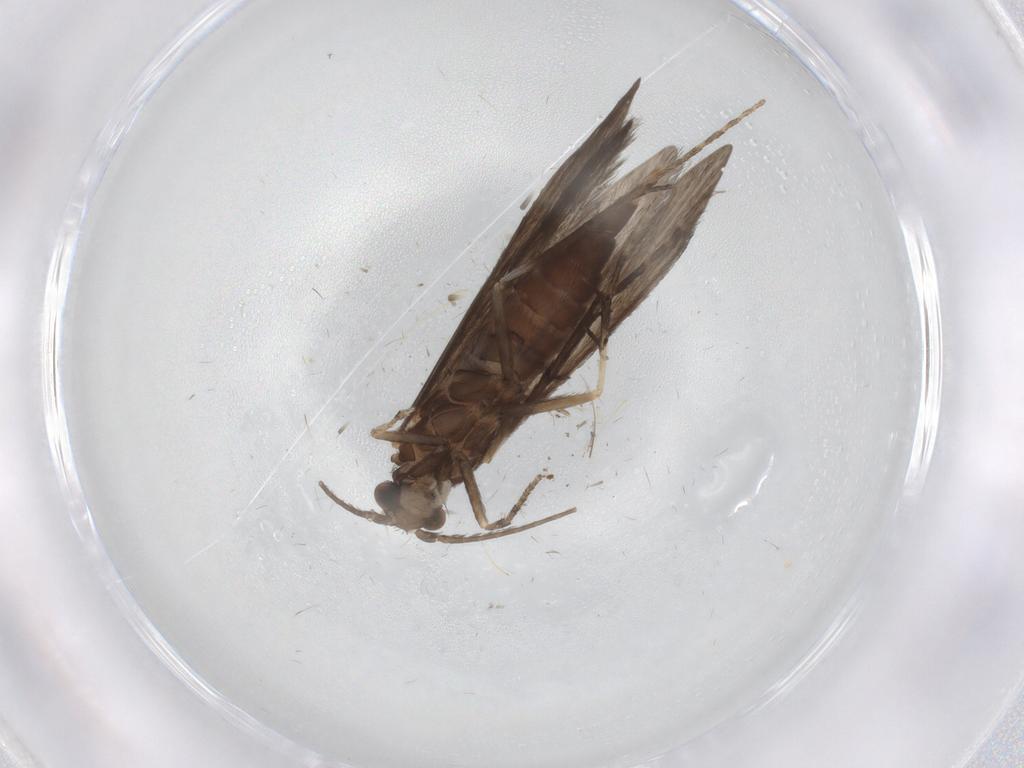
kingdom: Animalia
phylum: Arthropoda
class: Insecta
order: Trichoptera
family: Xiphocentronidae
